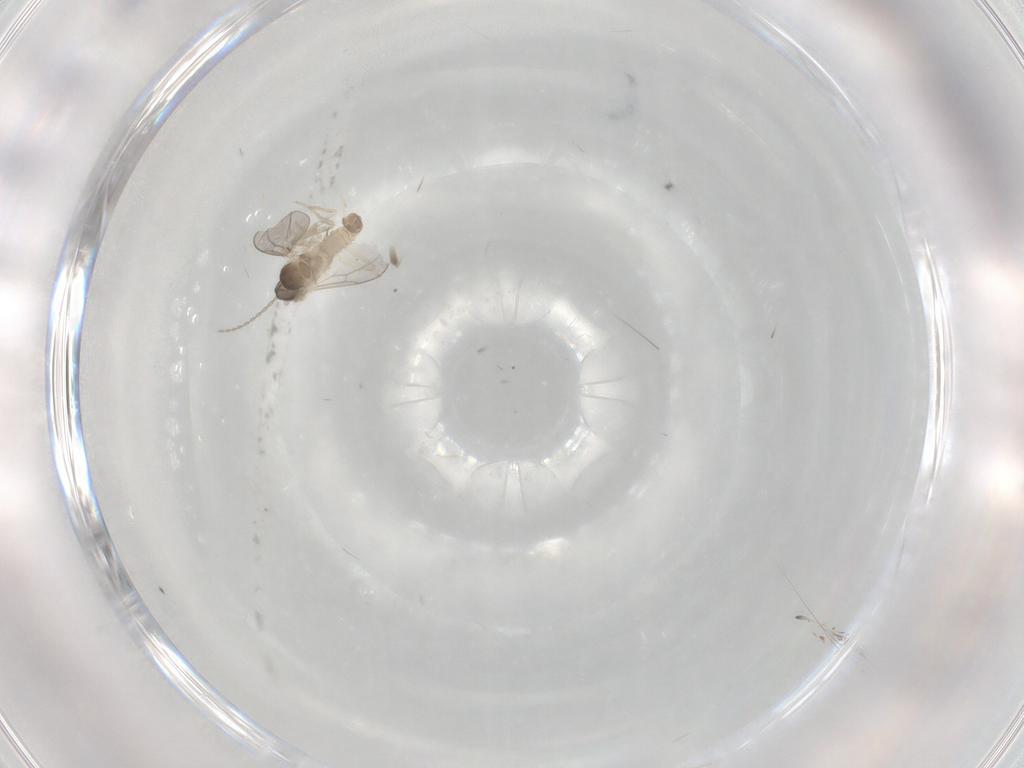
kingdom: Animalia
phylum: Arthropoda
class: Insecta
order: Diptera
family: Cecidomyiidae
